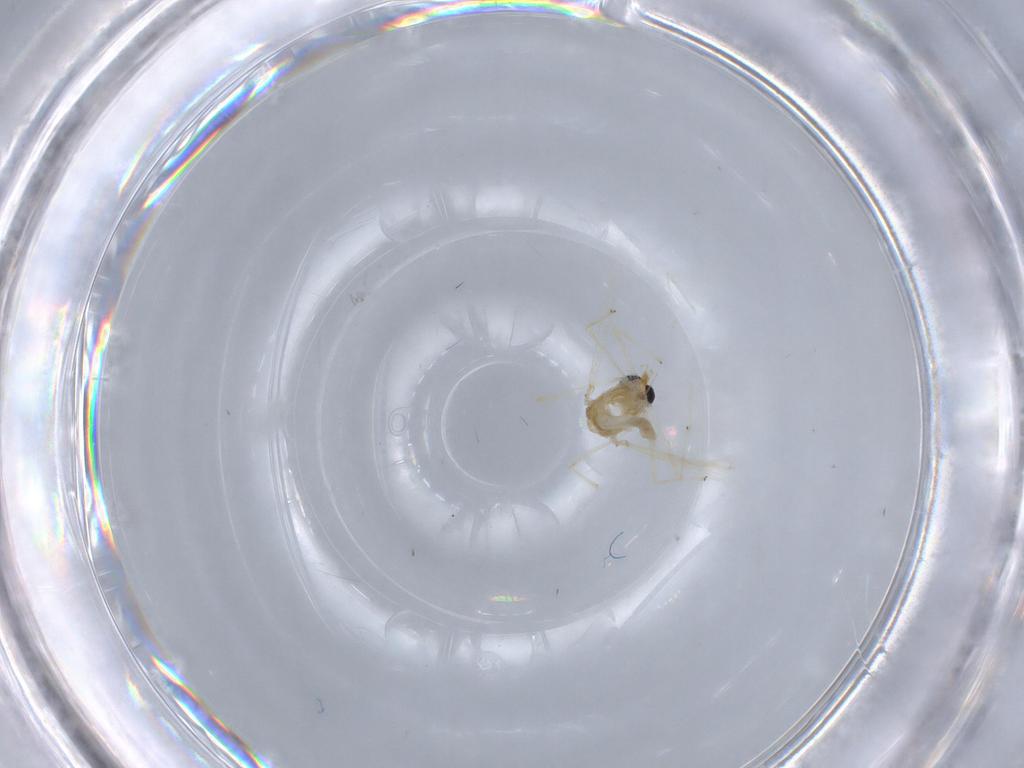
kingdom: Animalia
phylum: Arthropoda
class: Insecta
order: Diptera
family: Cecidomyiidae
